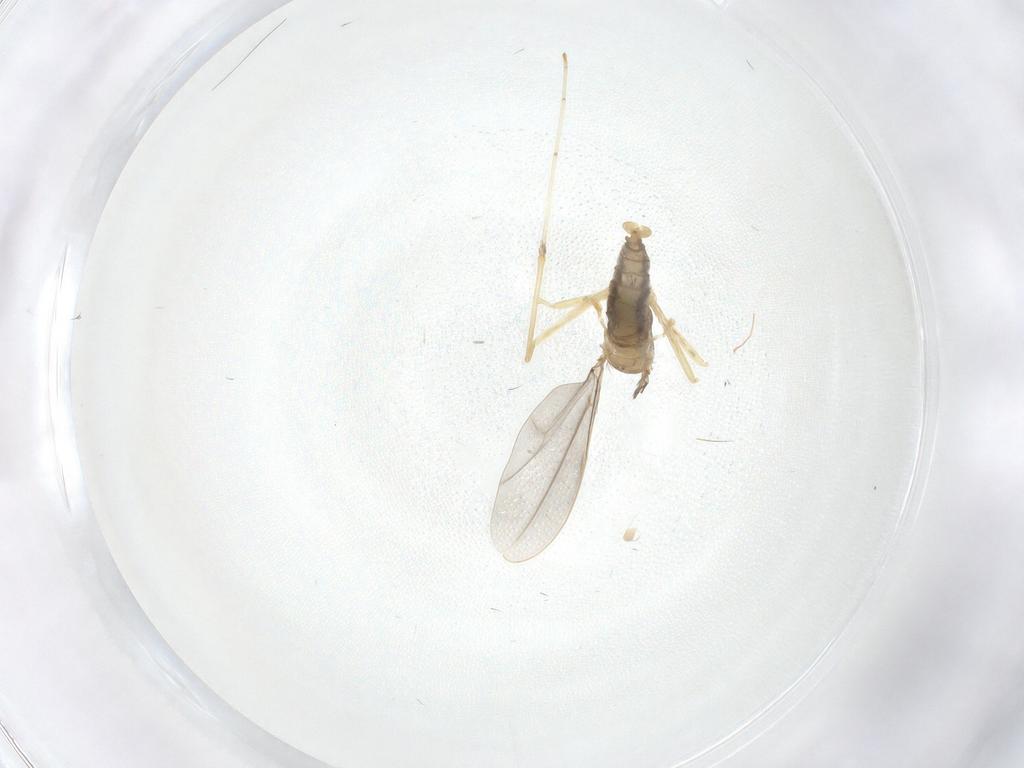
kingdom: Animalia
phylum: Arthropoda
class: Insecta
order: Diptera
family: Cecidomyiidae
